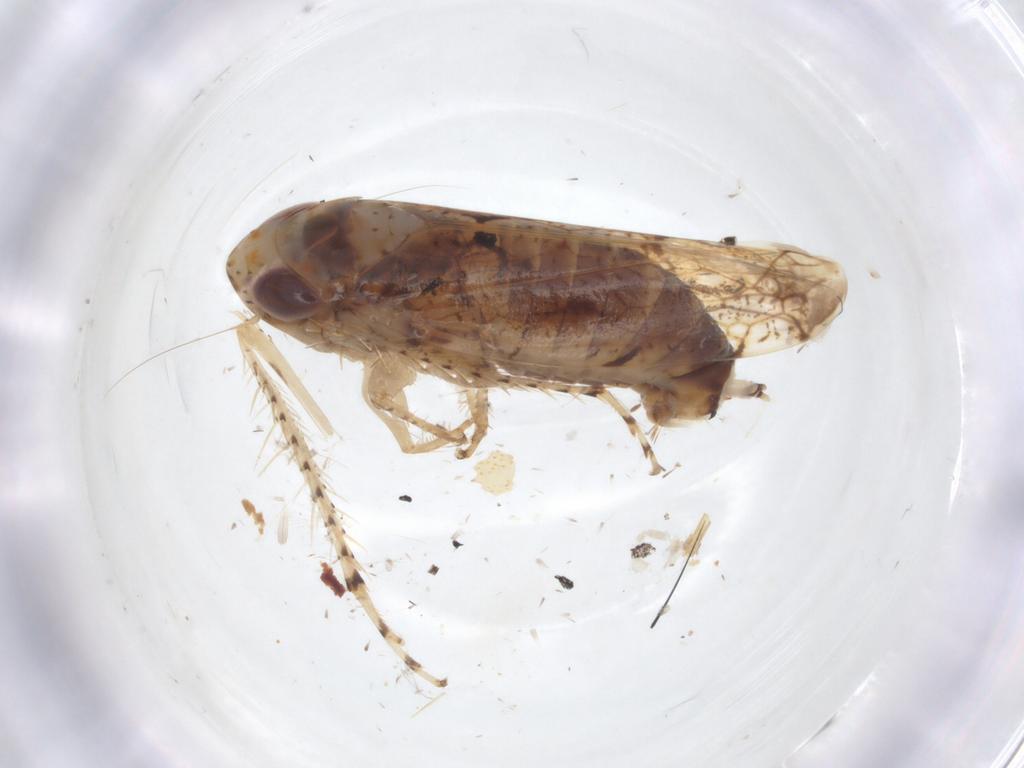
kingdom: Animalia
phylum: Arthropoda
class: Insecta
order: Hemiptera
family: Cicadellidae
